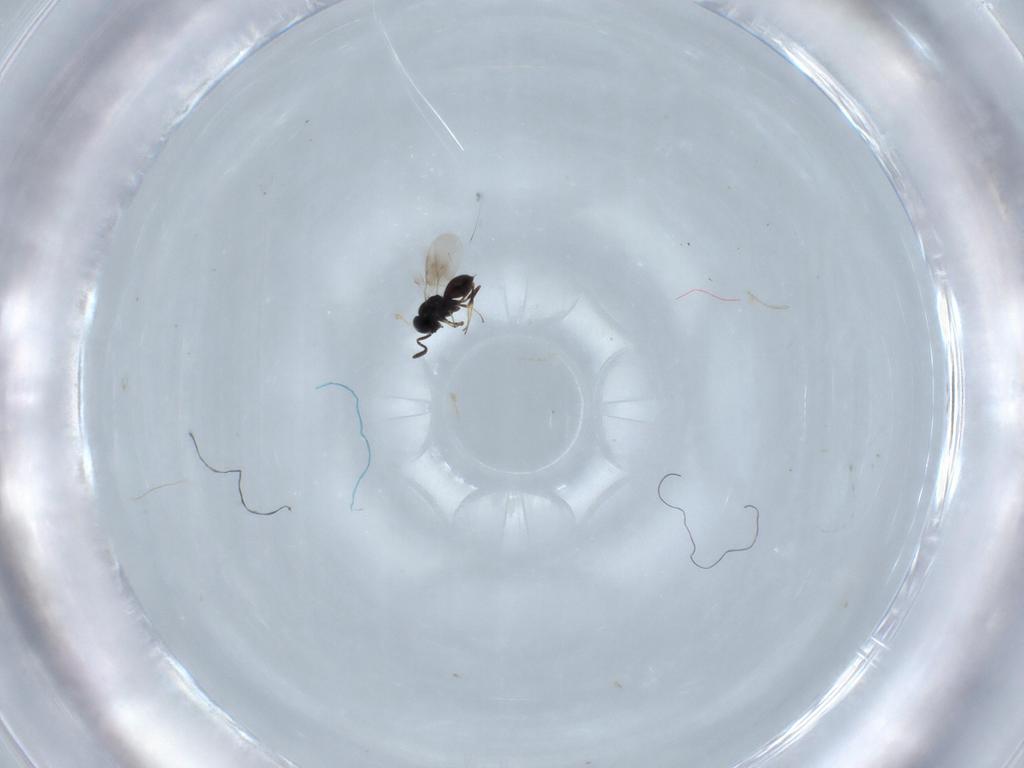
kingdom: Animalia
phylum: Arthropoda
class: Insecta
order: Hymenoptera
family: Scelionidae
